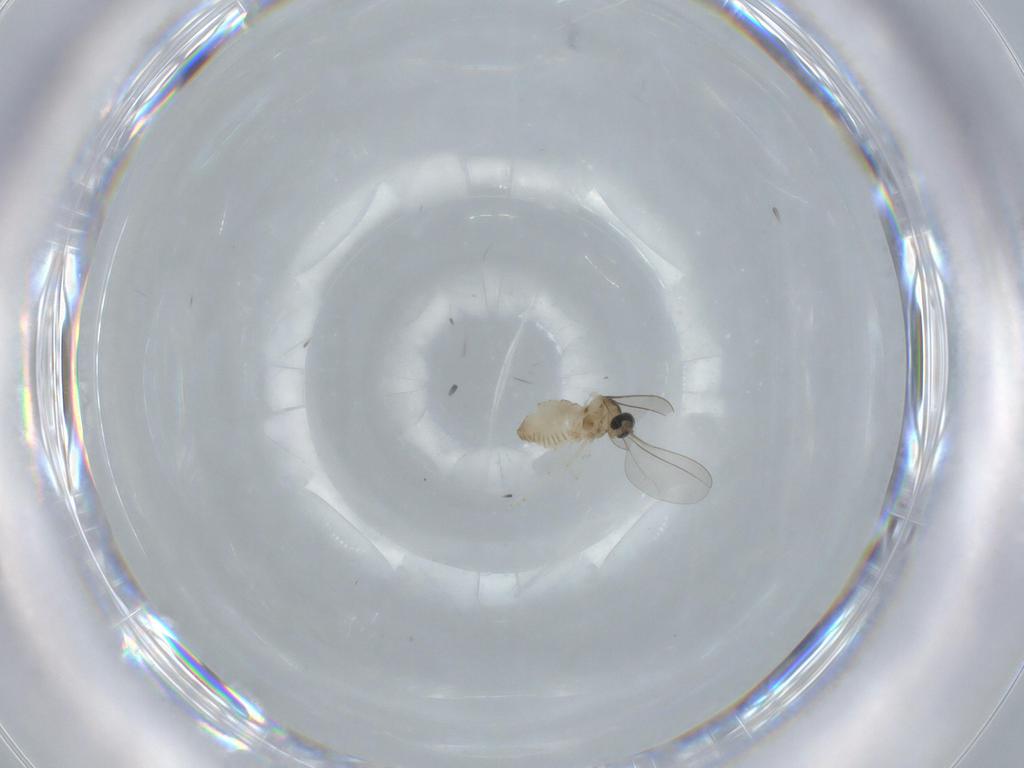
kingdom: Animalia
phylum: Arthropoda
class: Insecta
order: Diptera
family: Cecidomyiidae
